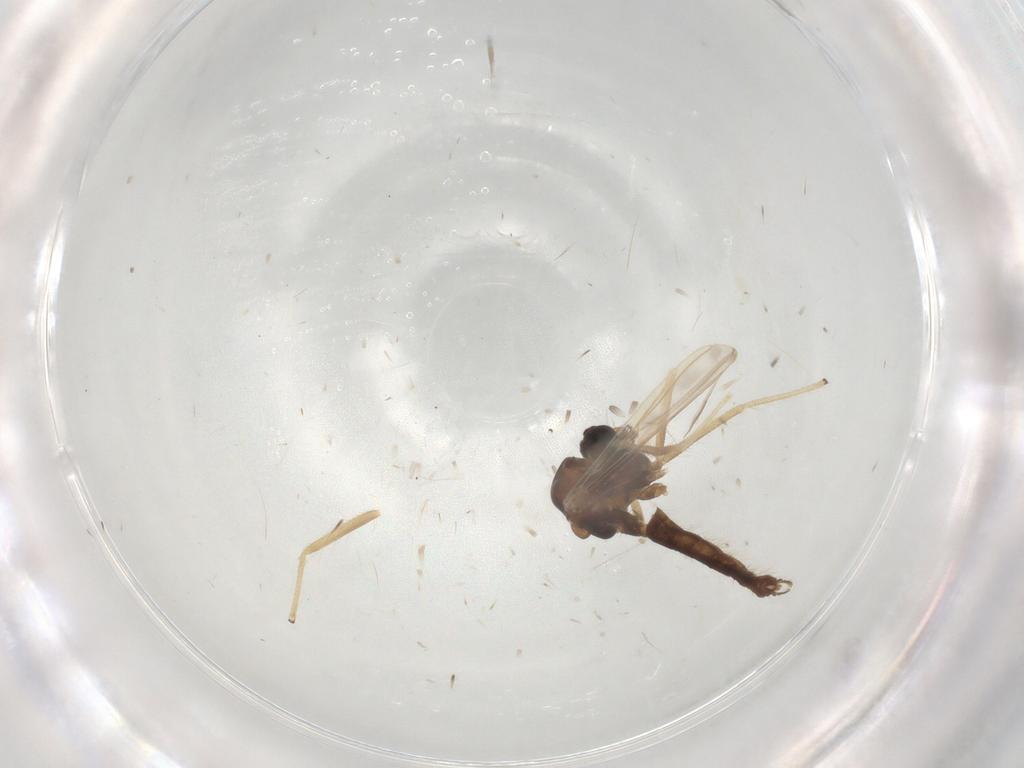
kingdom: Animalia
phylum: Arthropoda
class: Insecta
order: Diptera
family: Chironomidae
